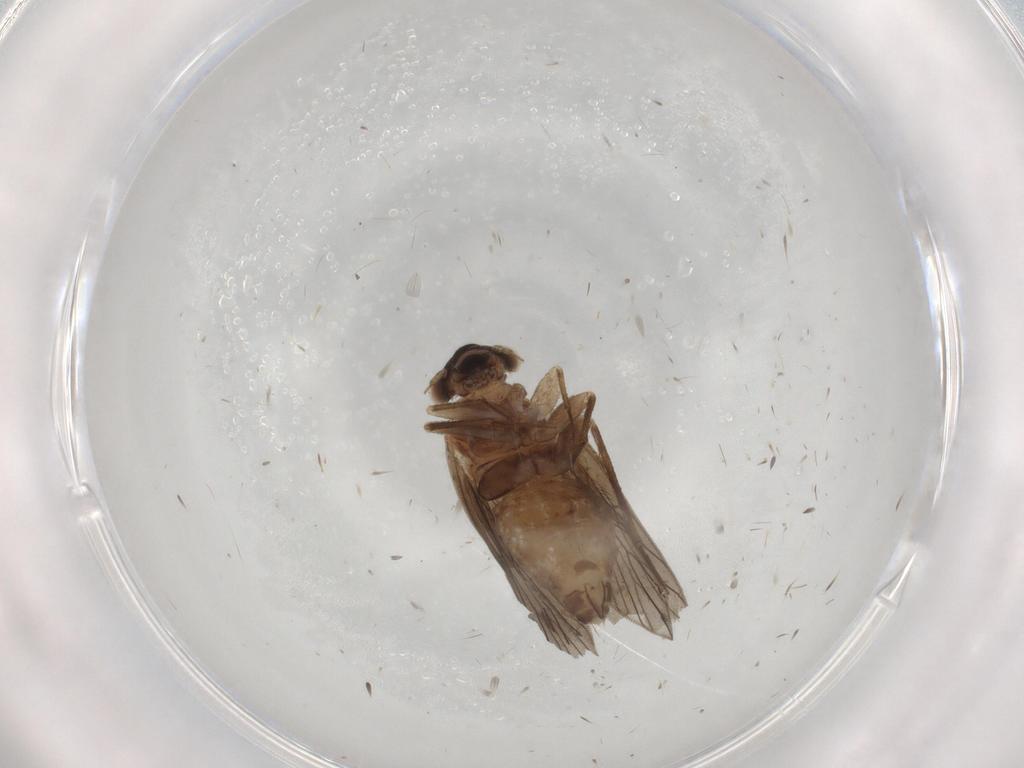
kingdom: Animalia
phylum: Arthropoda
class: Insecta
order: Psocodea
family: Lepidopsocidae
